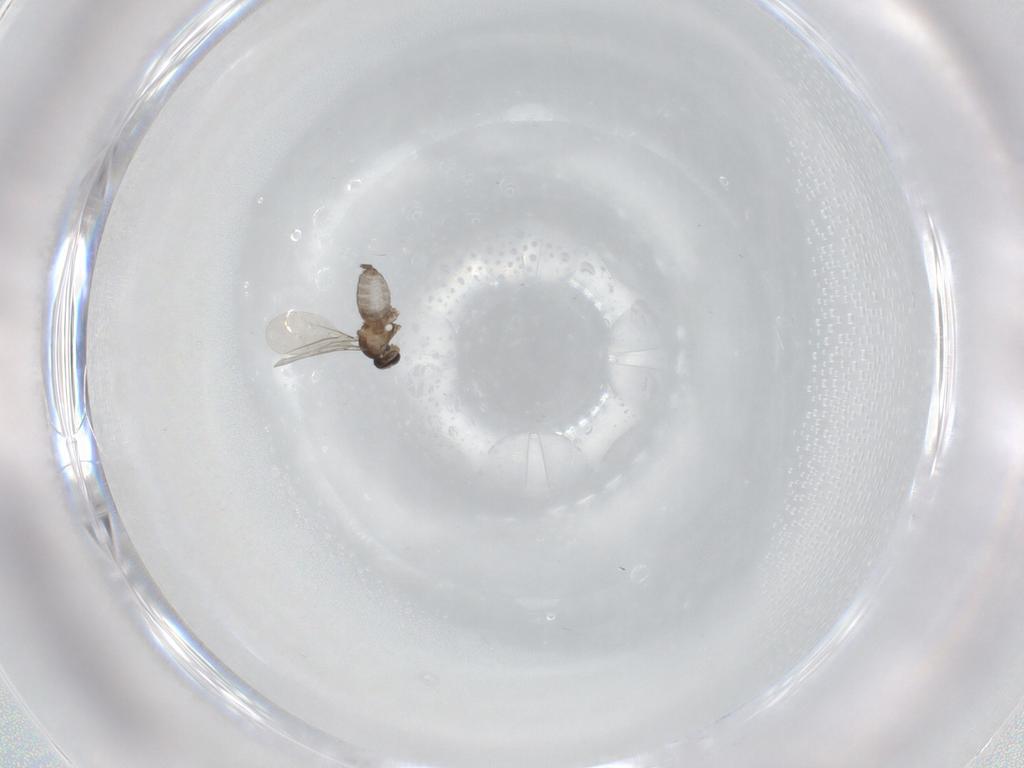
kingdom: Animalia
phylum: Arthropoda
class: Insecta
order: Diptera
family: Cecidomyiidae
